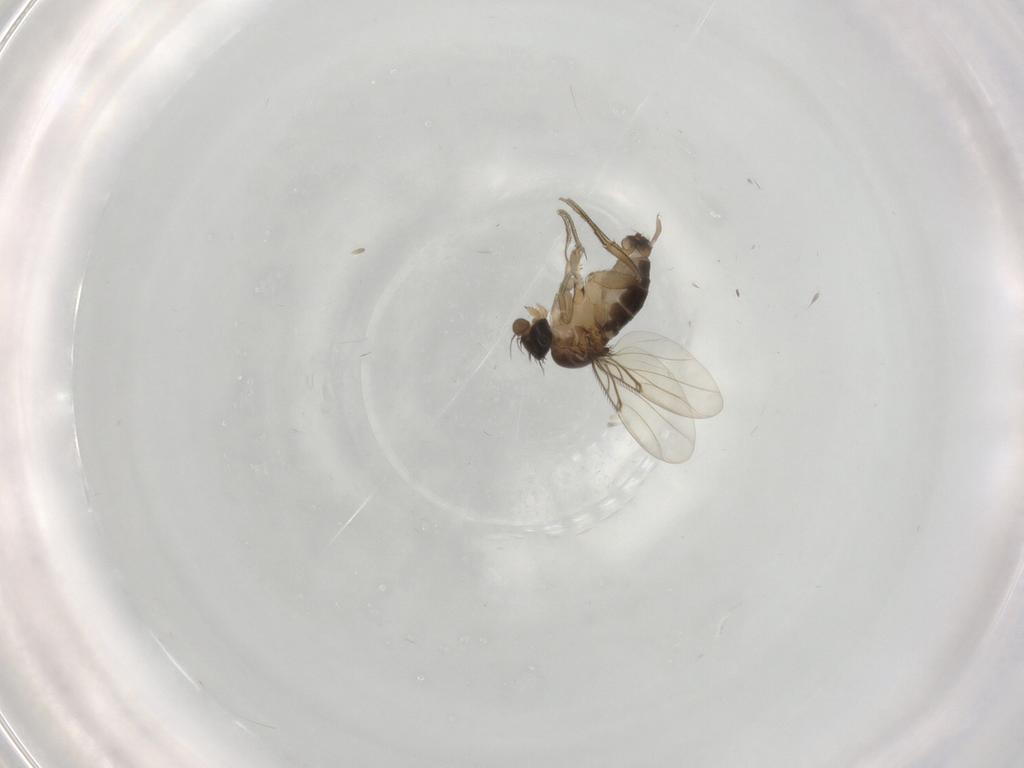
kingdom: Animalia
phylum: Arthropoda
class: Insecta
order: Diptera
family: Phoridae
